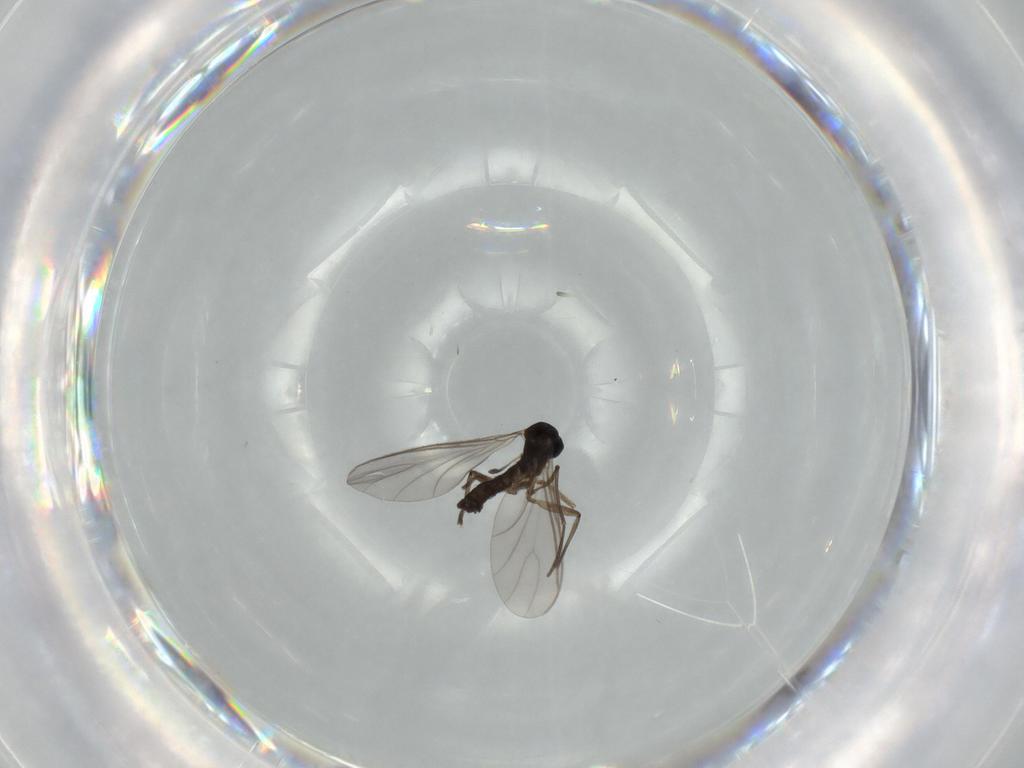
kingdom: Animalia
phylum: Arthropoda
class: Insecta
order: Diptera
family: Sciaridae
